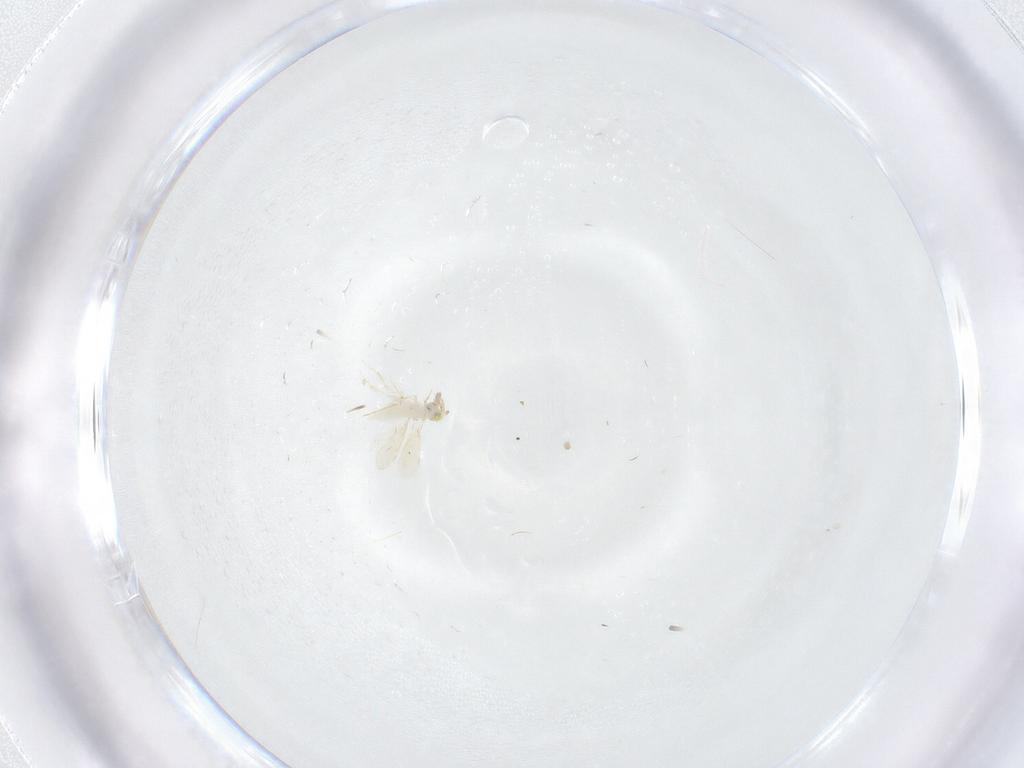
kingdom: Animalia
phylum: Arthropoda
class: Insecta
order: Hymenoptera
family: Aphelinidae
